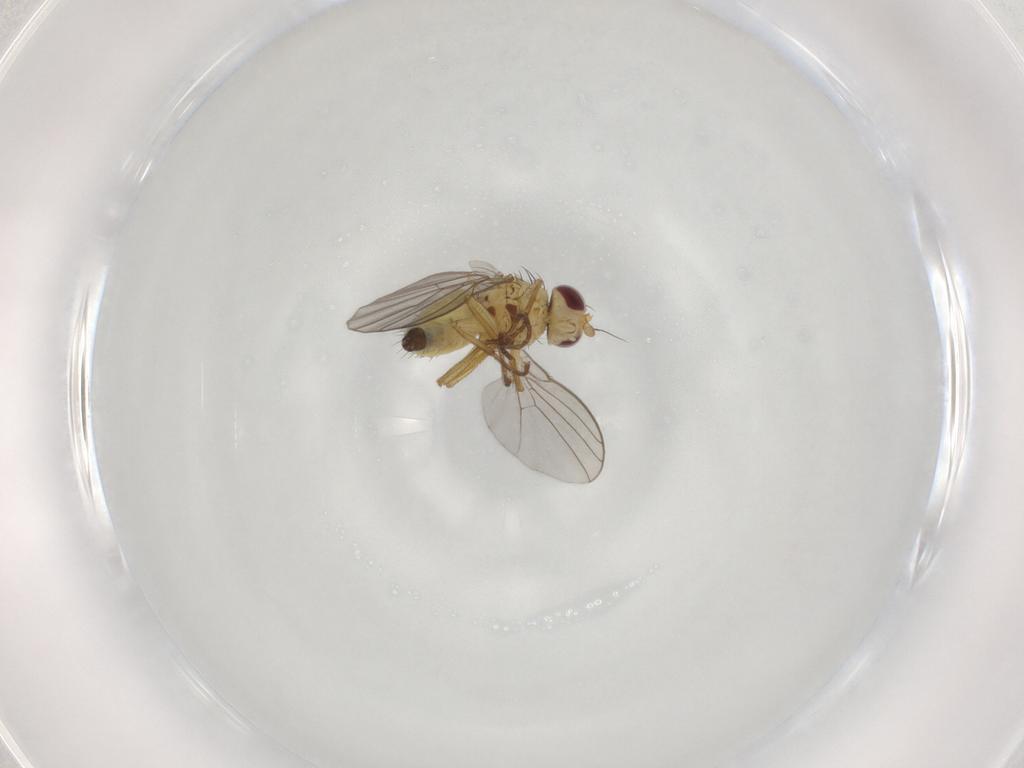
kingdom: Animalia
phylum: Arthropoda
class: Insecta
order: Diptera
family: Agromyzidae
